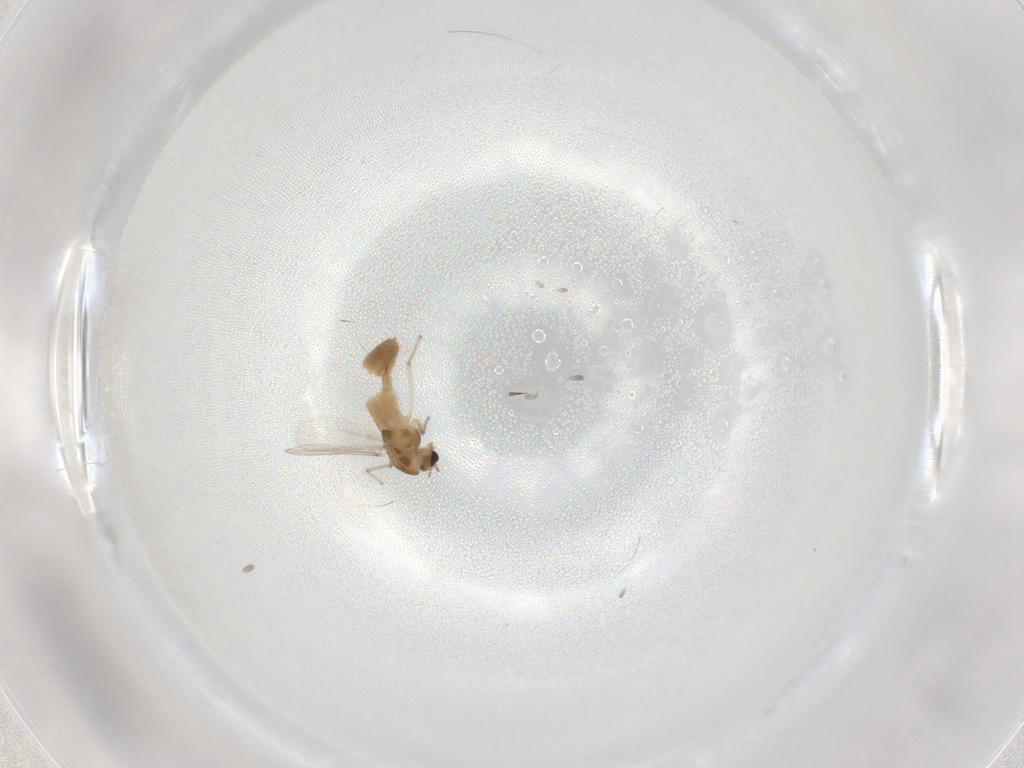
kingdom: Animalia
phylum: Arthropoda
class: Insecta
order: Diptera
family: Chironomidae
